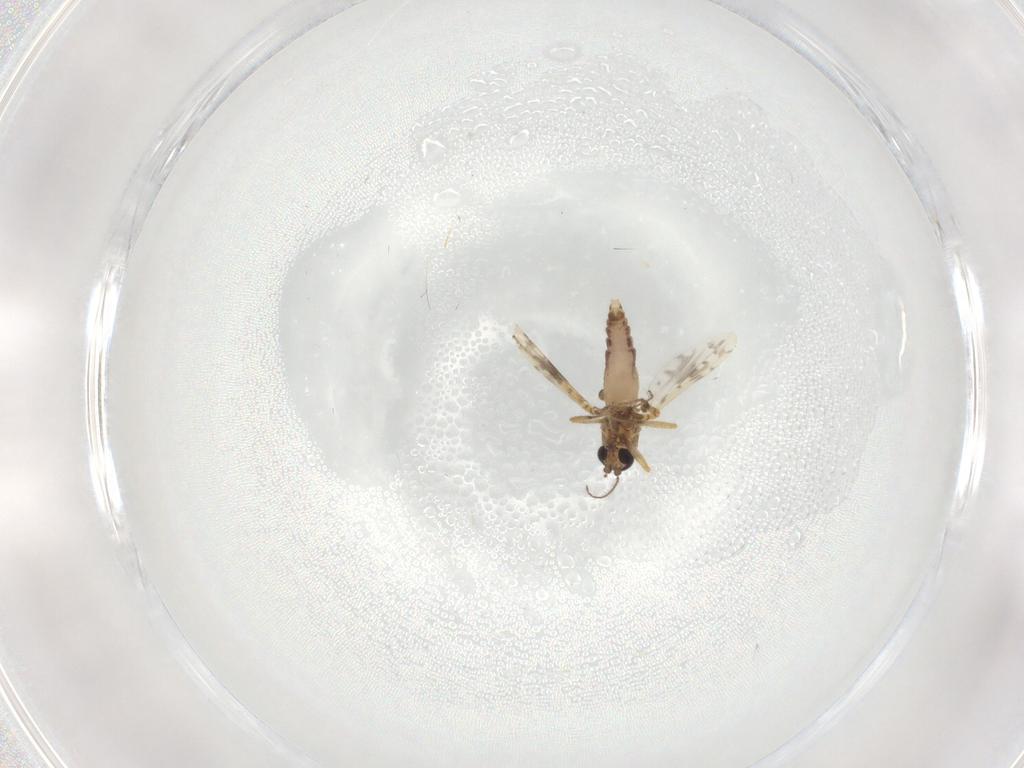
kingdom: Animalia
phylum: Arthropoda
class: Insecta
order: Diptera
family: Ceratopogonidae
